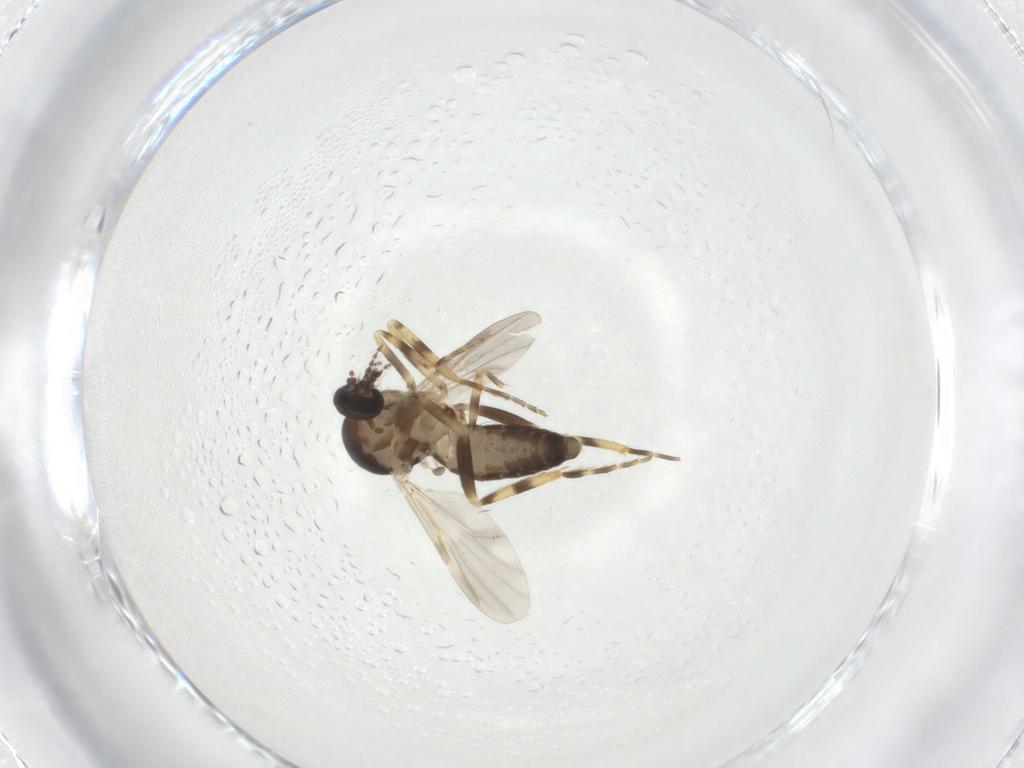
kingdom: Animalia
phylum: Arthropoda
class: Insecta
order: Diptera
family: Ceratopogonidae
